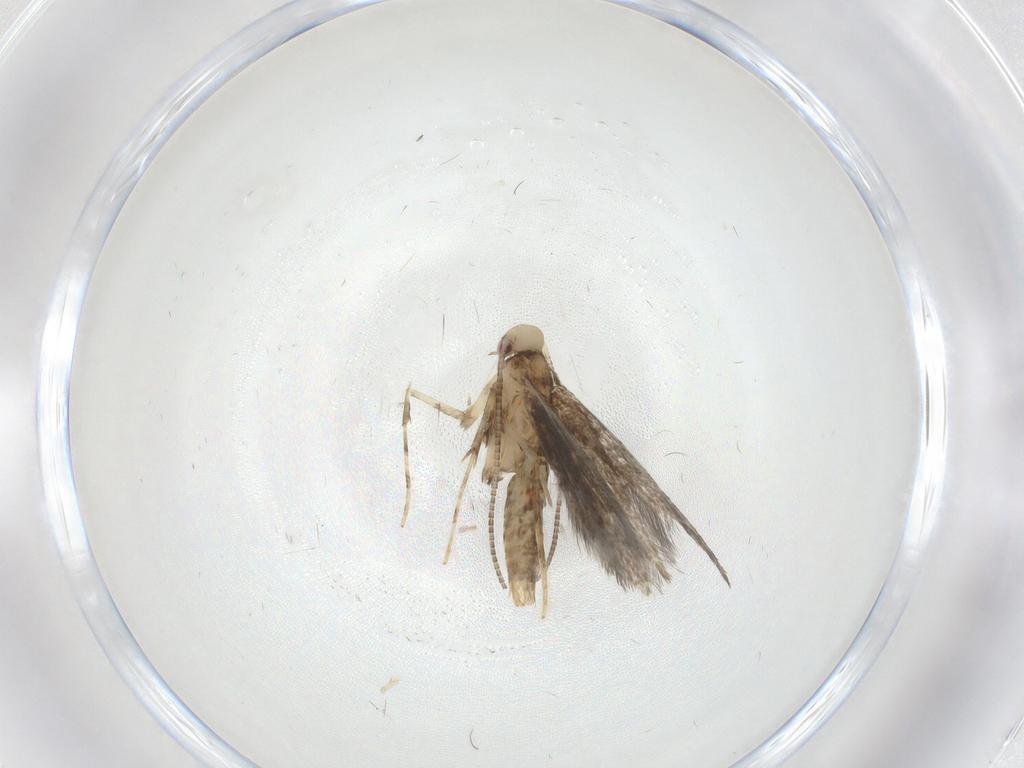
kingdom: Animalia
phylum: Arthropoda
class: Insecta
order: Lepidoptera
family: Gracillariidae
